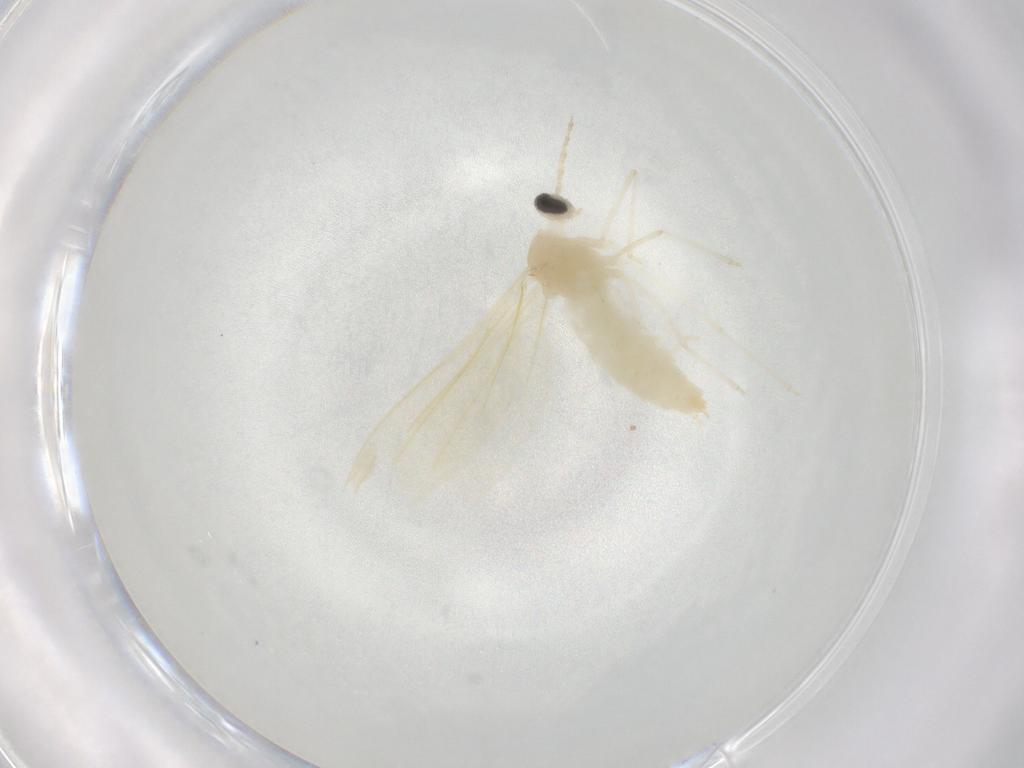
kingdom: Animalia
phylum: Arthropoda
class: Insecta
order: Diptera
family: Cecidomyiidae
